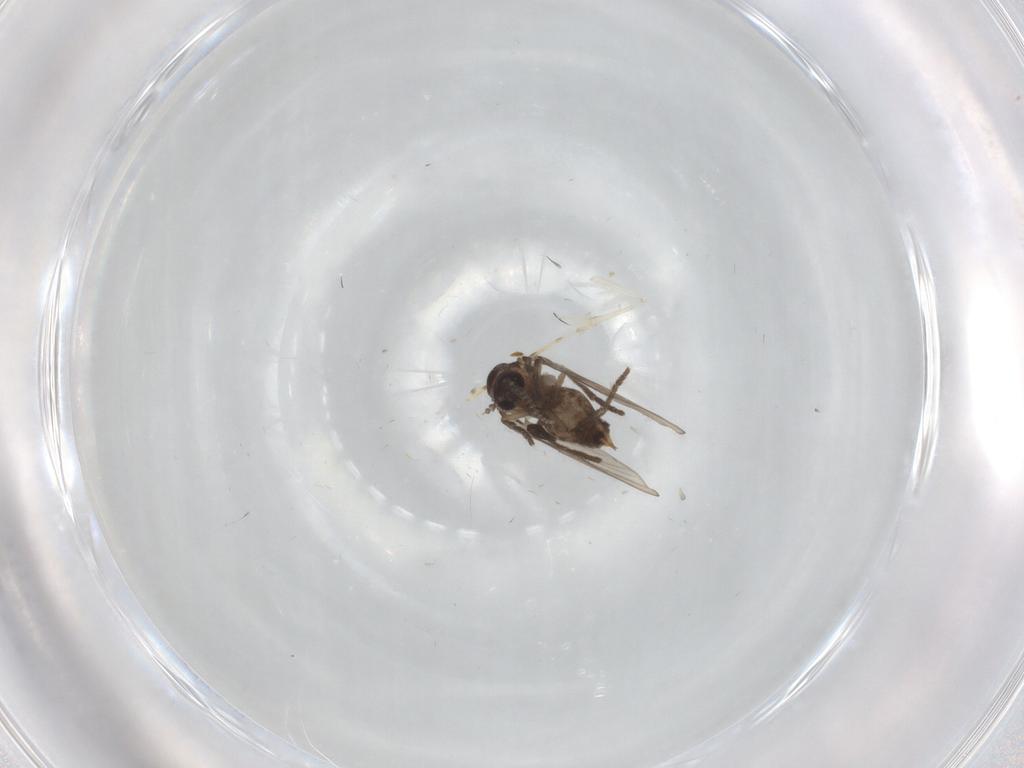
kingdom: Animalia
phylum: Arthropoda
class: Insecta
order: Diptera
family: Psychodidae
